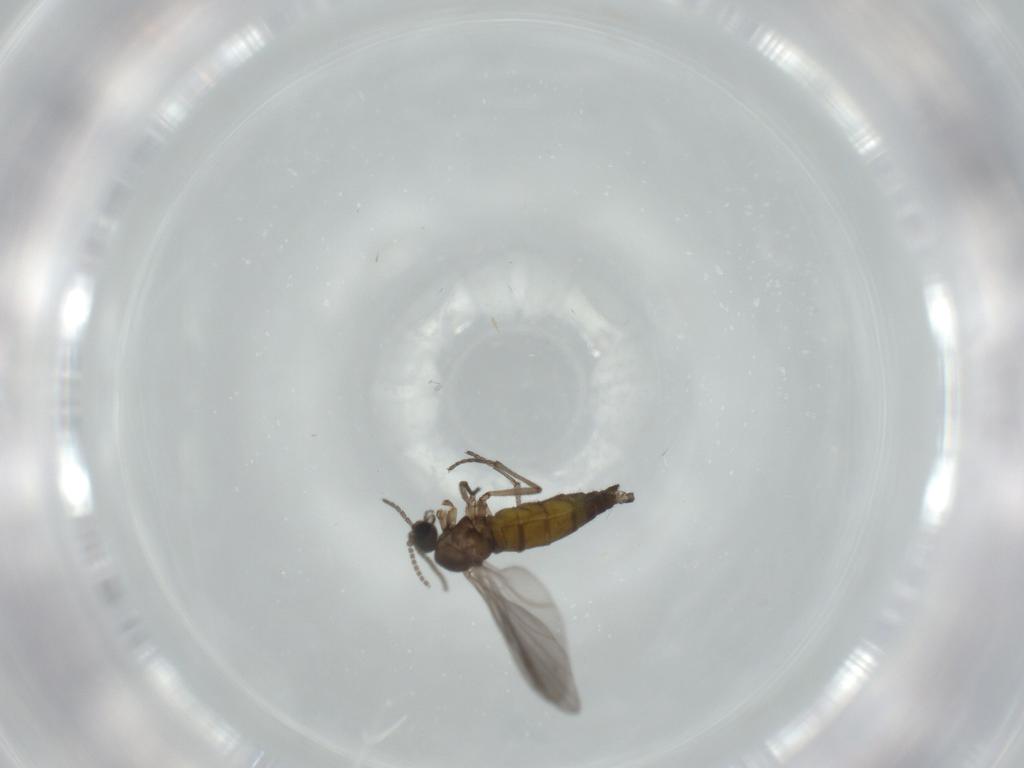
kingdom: Animalia
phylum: Arthropoda
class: Insecta
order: Diptera
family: Sciaridae
